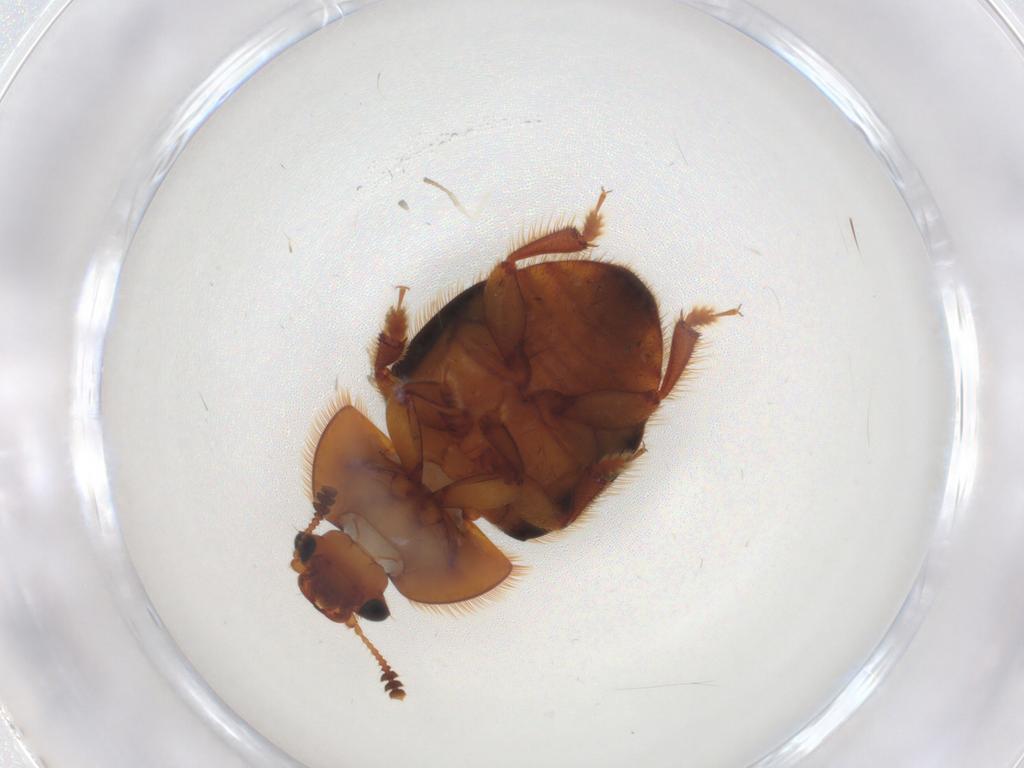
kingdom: Animalia
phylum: Arthropoda
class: Insecta
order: Coleoptera
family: Nitidulidae
